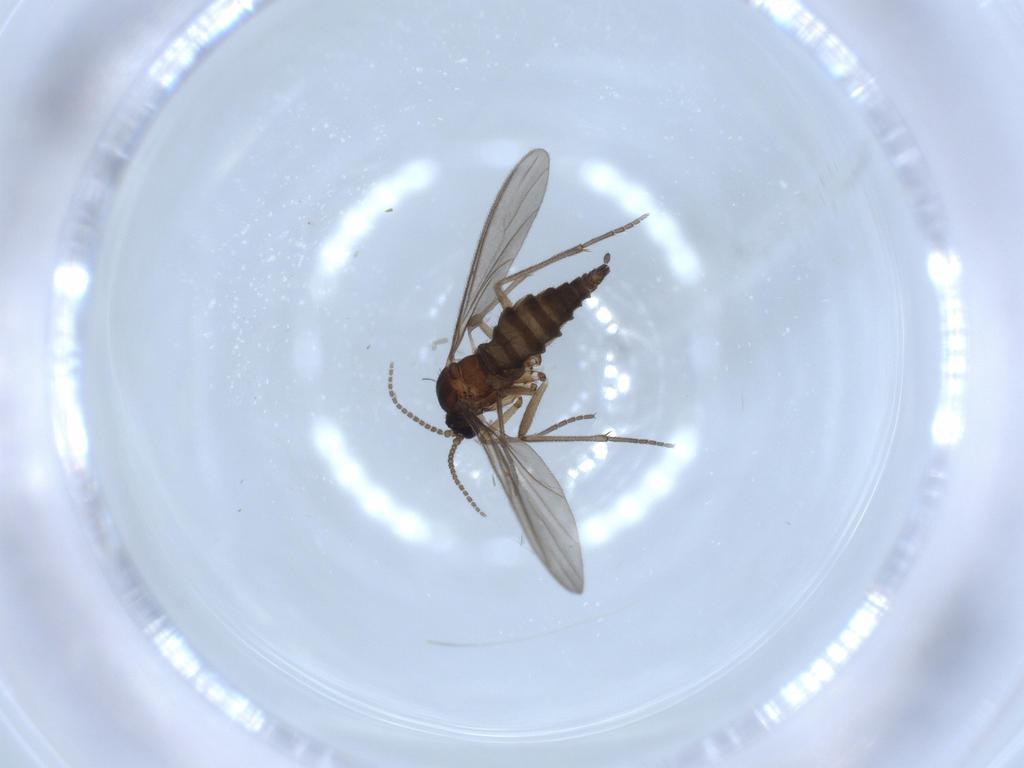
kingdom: Animalia
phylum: Arthropoda
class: Insecta
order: Diptera
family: Sciaridae
